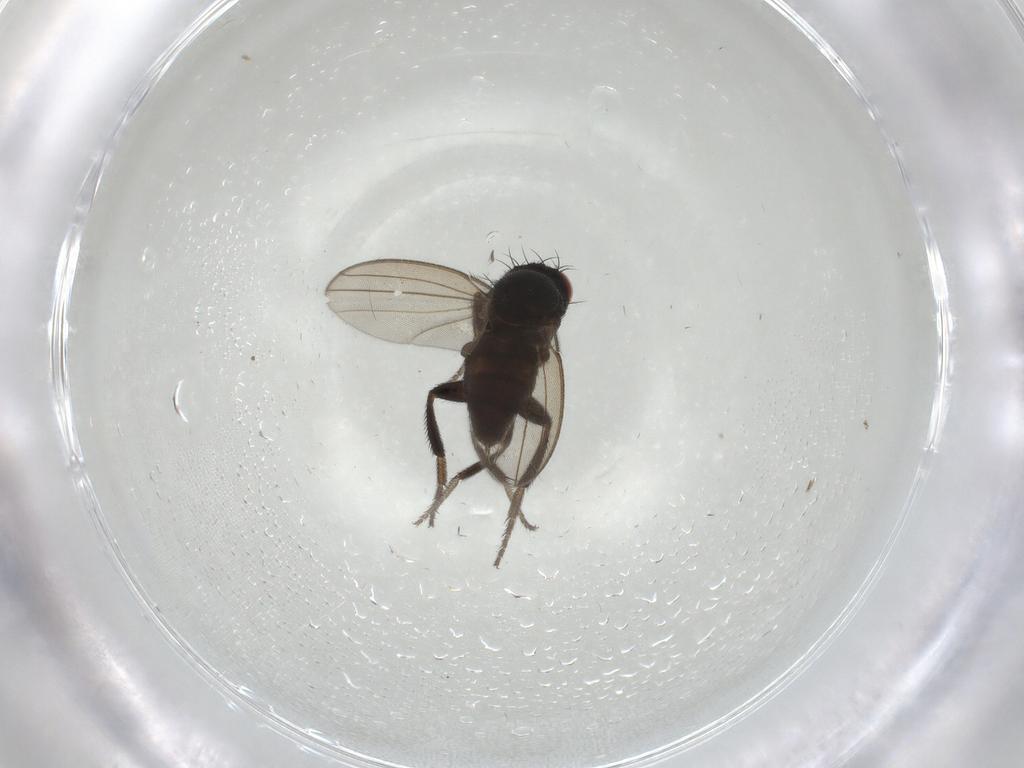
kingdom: Animalia
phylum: Arthropoda
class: Insecta
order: Diptera
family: Milichiidae
